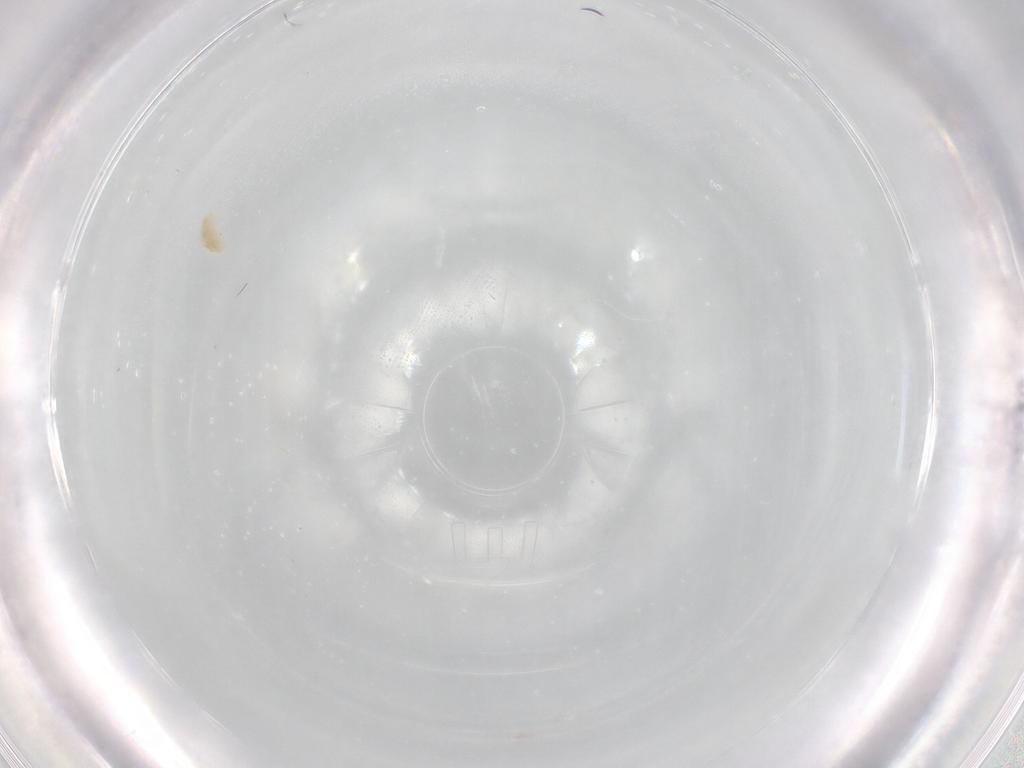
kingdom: Animalia
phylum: Arthropoda
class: Arachnida
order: Trombidiformes
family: Eupodidae
